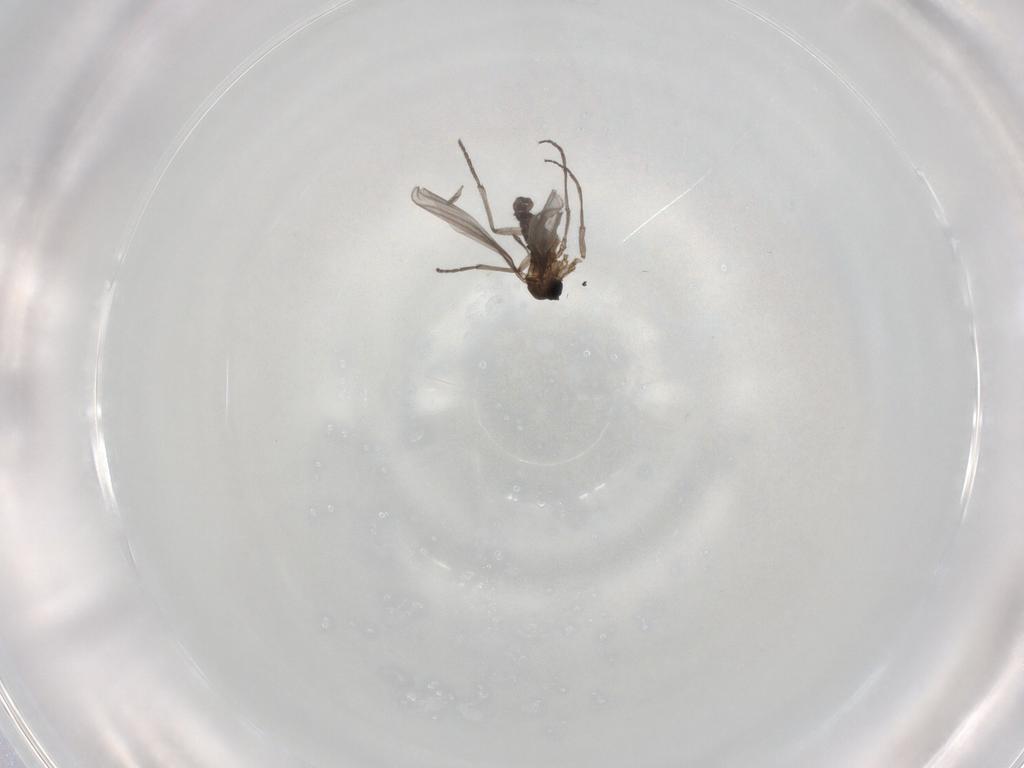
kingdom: Animalia
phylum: Arthropoda
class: Insecta
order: Diptera
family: Sciaridae
